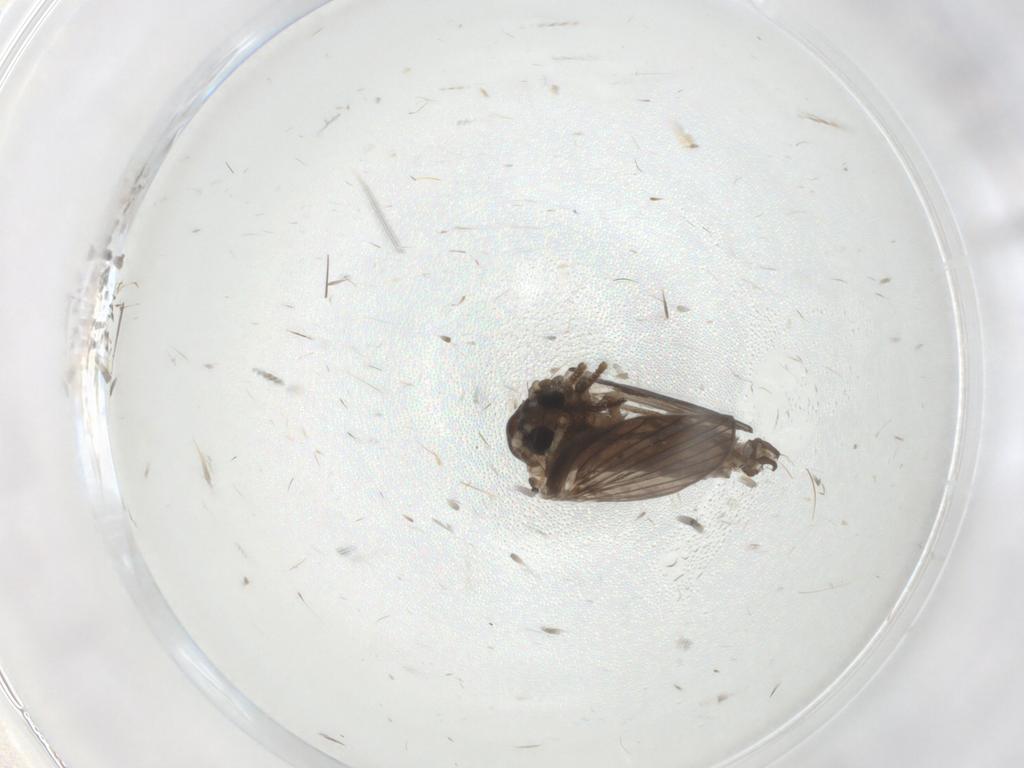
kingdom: Animalia
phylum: Arthropoda
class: Insecta
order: Diptera
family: Psychodidae
